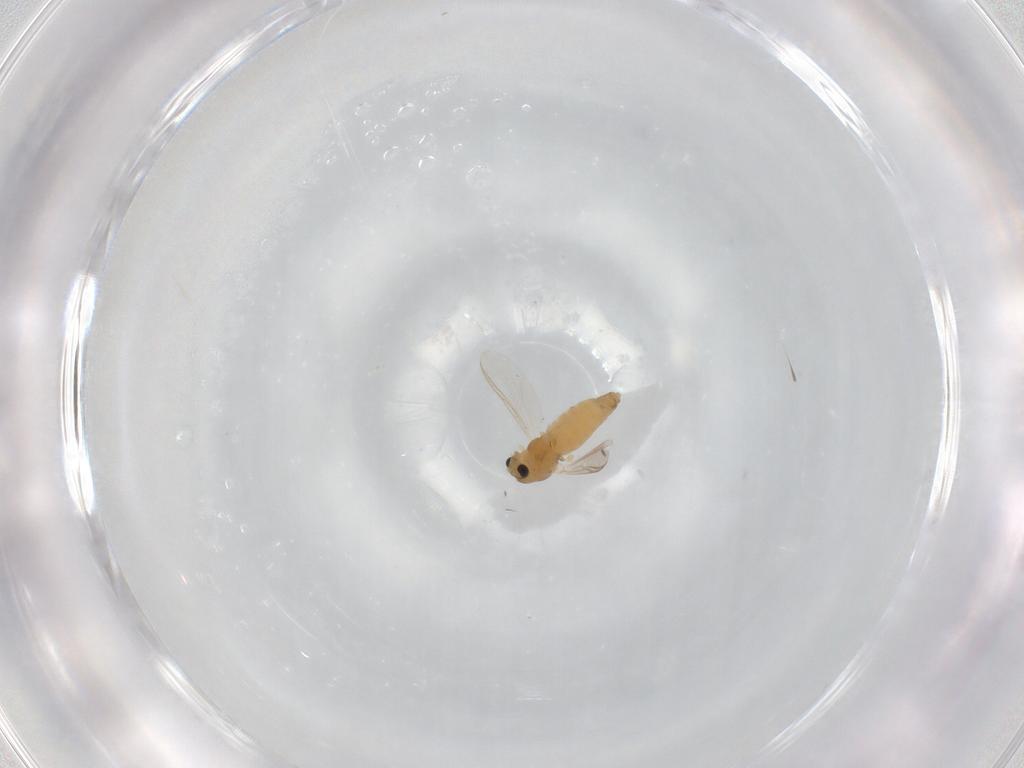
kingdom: Animalia
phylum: Arthropoda
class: Insecta
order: Diptera
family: Chironomidae
